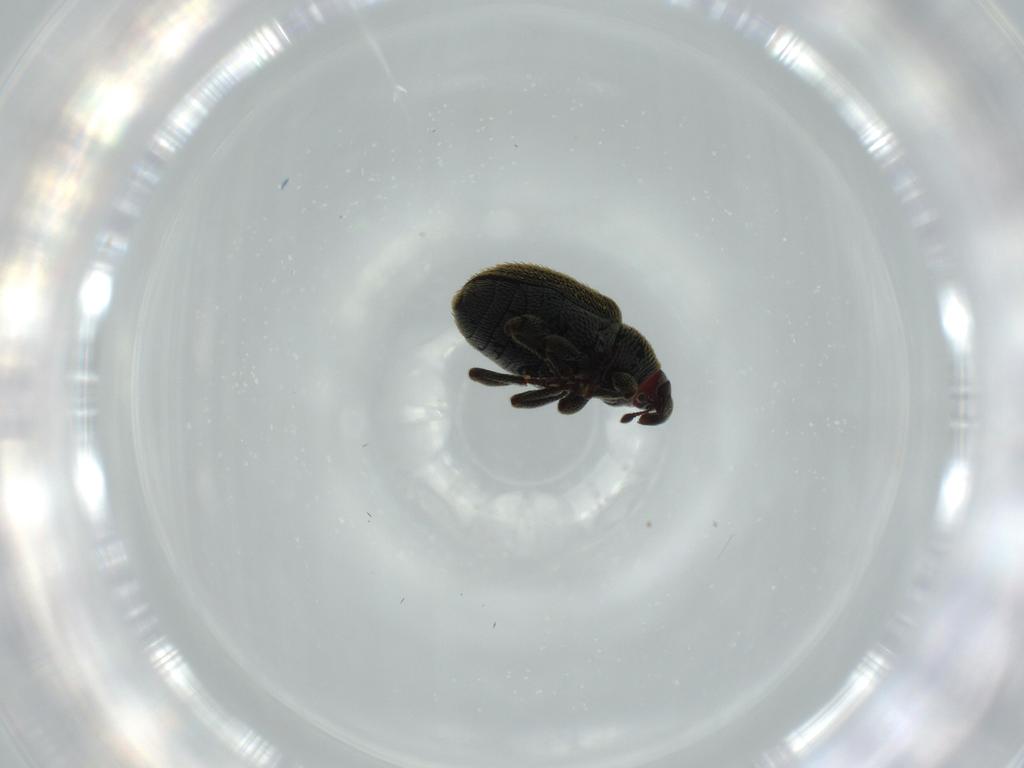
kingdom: Animalia
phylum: Arthropoda
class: Insecta
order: Coleoptera
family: Curculionidae
